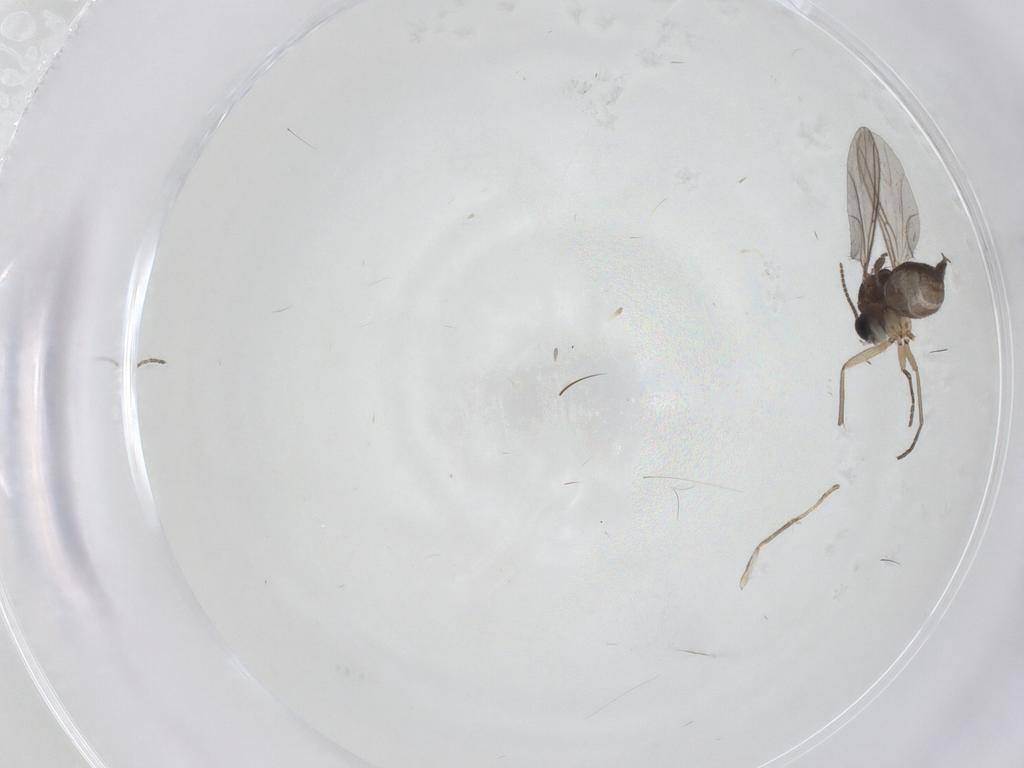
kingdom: Animalia
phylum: Arthropoda
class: Insecta
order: Diptera
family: Sciaridae
